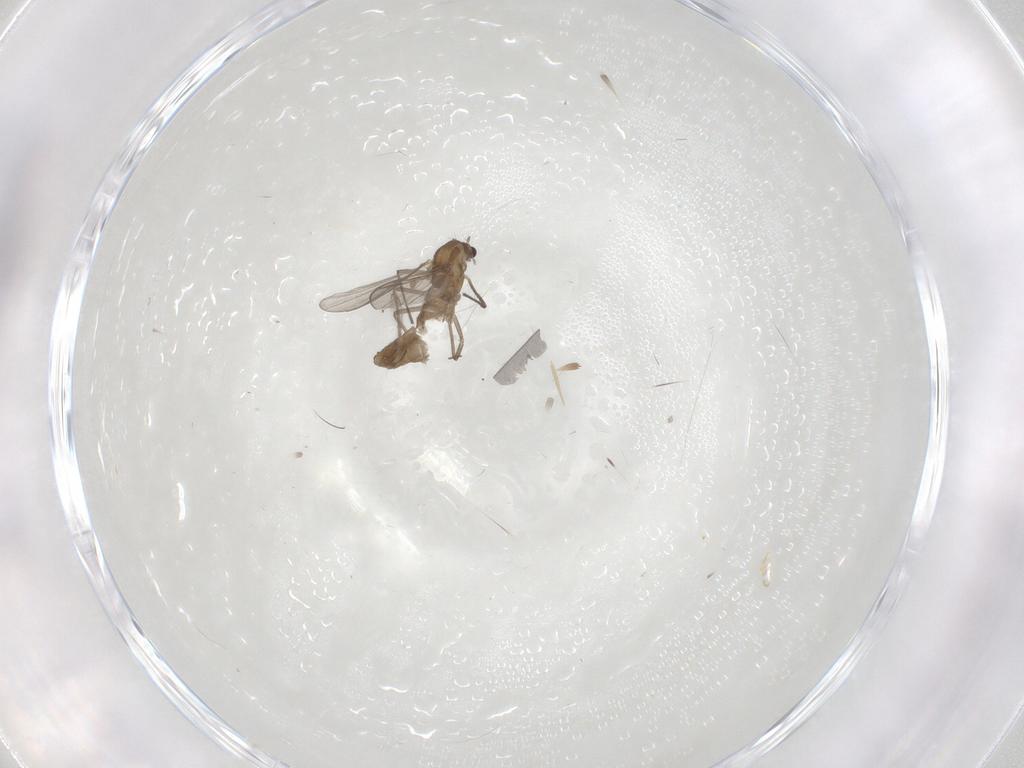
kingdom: Animalia
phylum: Arthropoda
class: Insecta
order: Diptera
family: Chironomidae
